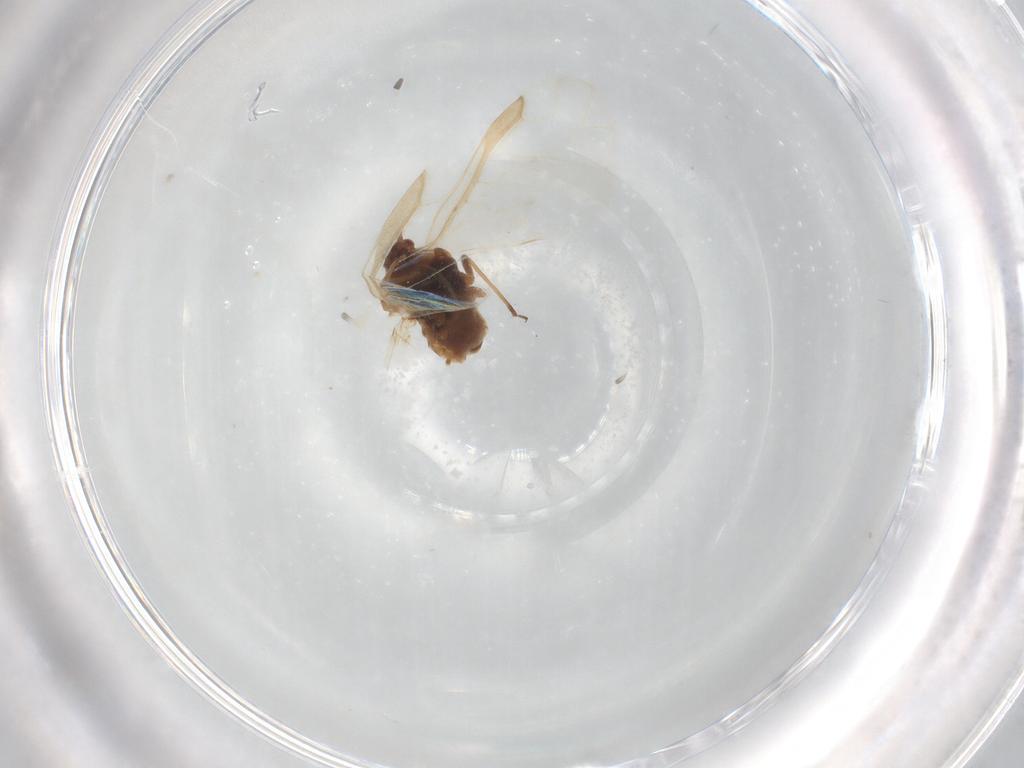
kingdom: Animalia
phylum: Arthropoda
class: Insecta
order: Hemiptera
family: Aphididae
